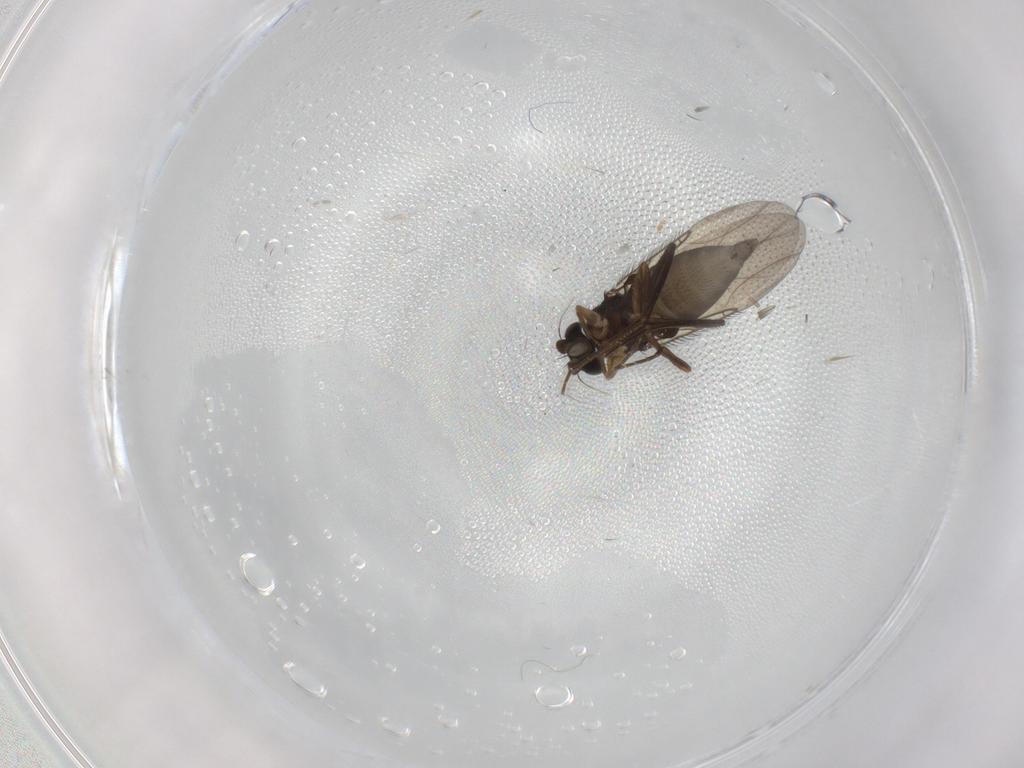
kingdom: Animalia
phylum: Arthropoda
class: Insecta
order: Diptera
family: Phoridae
